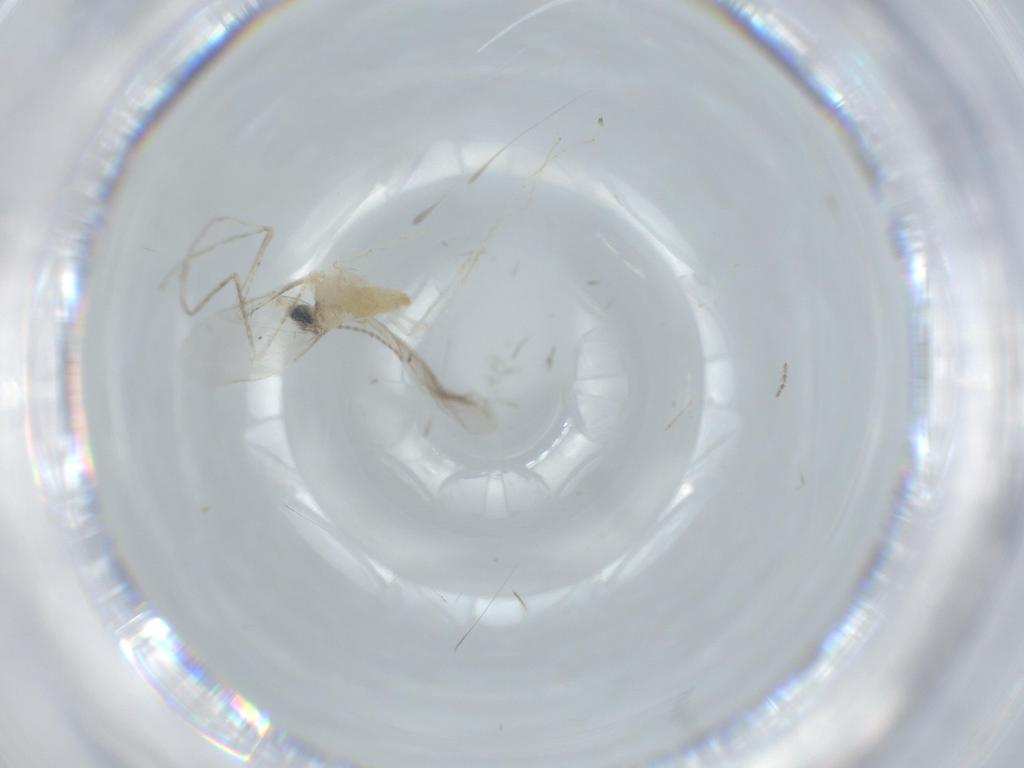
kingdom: Animalia
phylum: Arthropoda
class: Insecta
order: Diptera
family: Cecidomyiidae
